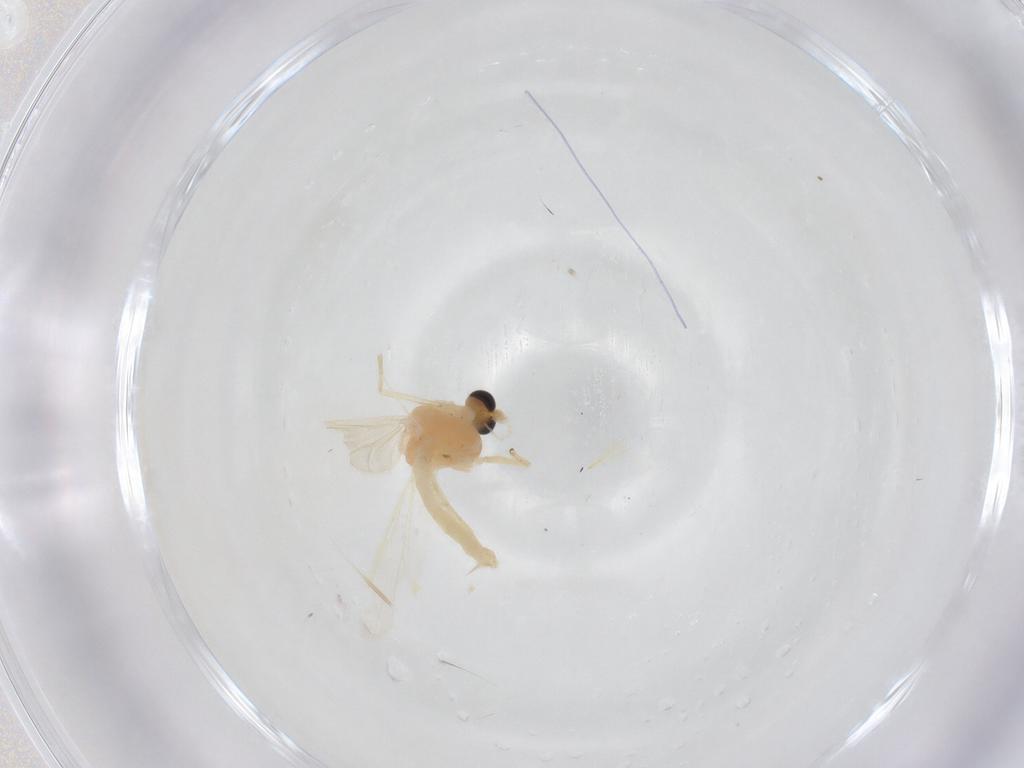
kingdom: Animalia
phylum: Arthropoda
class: Insecta
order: Diptera
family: Chironomidae
